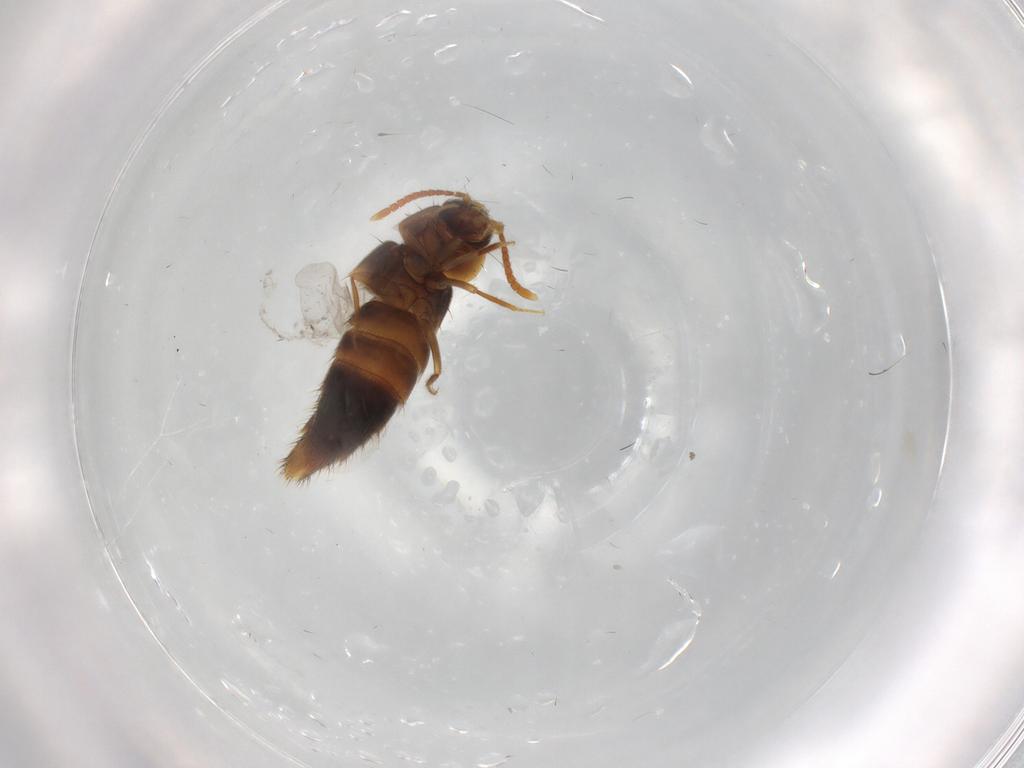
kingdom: Animalia
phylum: Arthropoda
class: Insecta
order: Coleoptera
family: Staphylinidae
